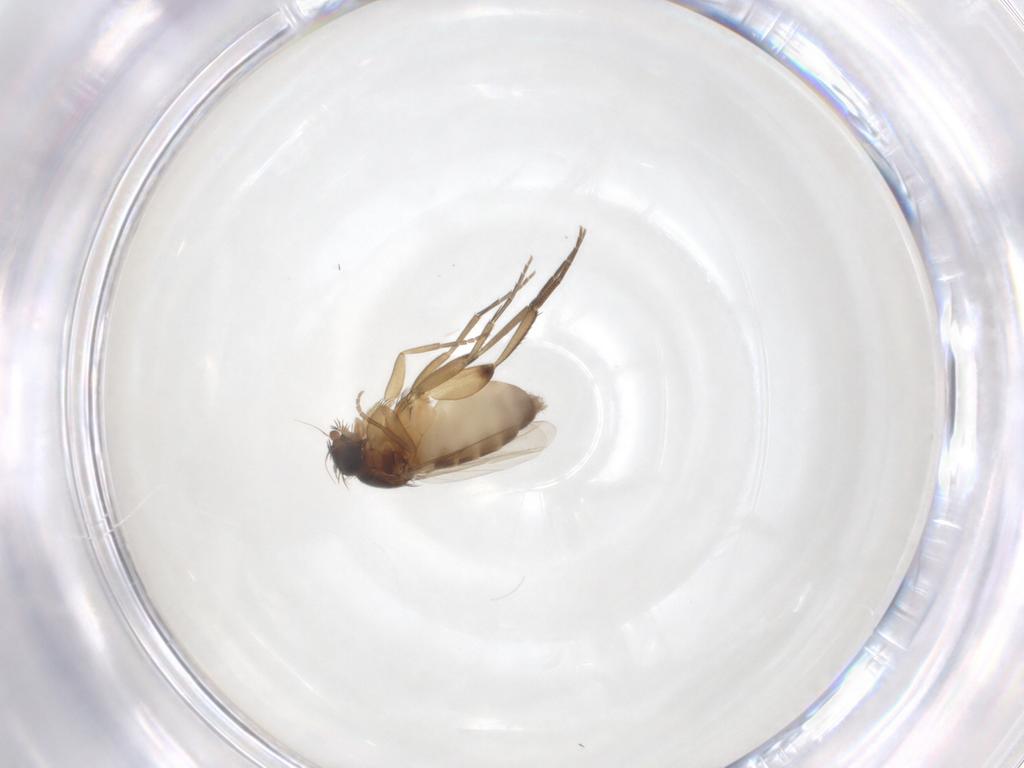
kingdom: Animalia
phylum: Arthropoda
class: Insecta
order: Diptera
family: Phoridae
